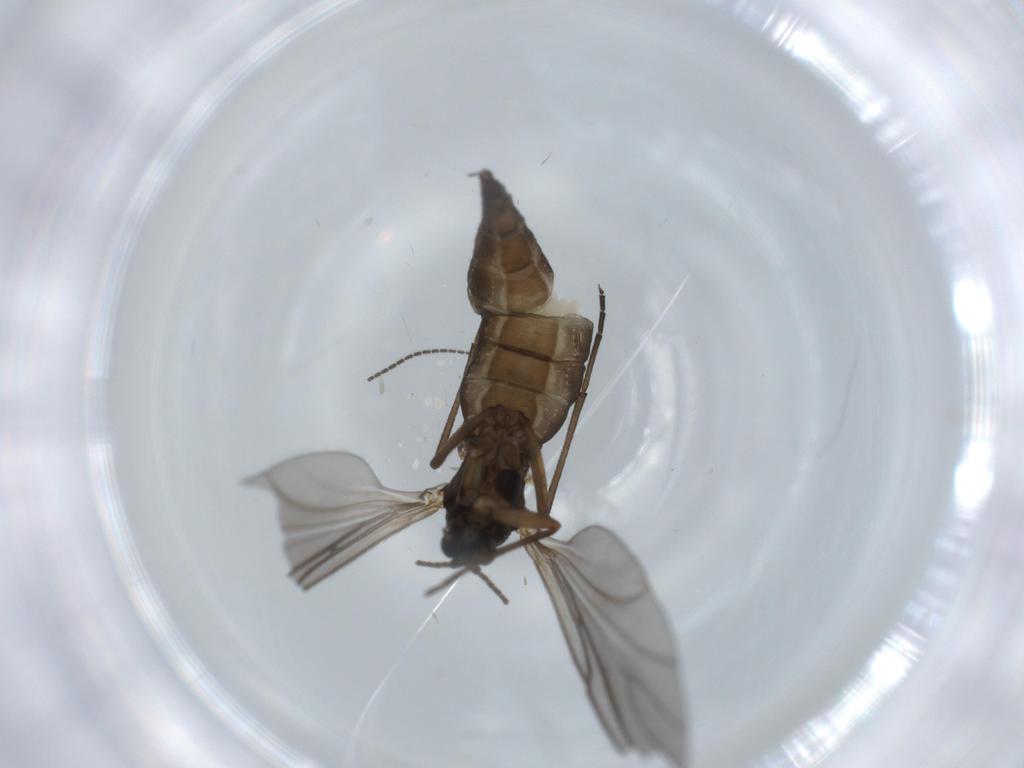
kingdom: Animalia
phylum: Arthropoda
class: Insecta
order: Diptera
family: Sciaridae
